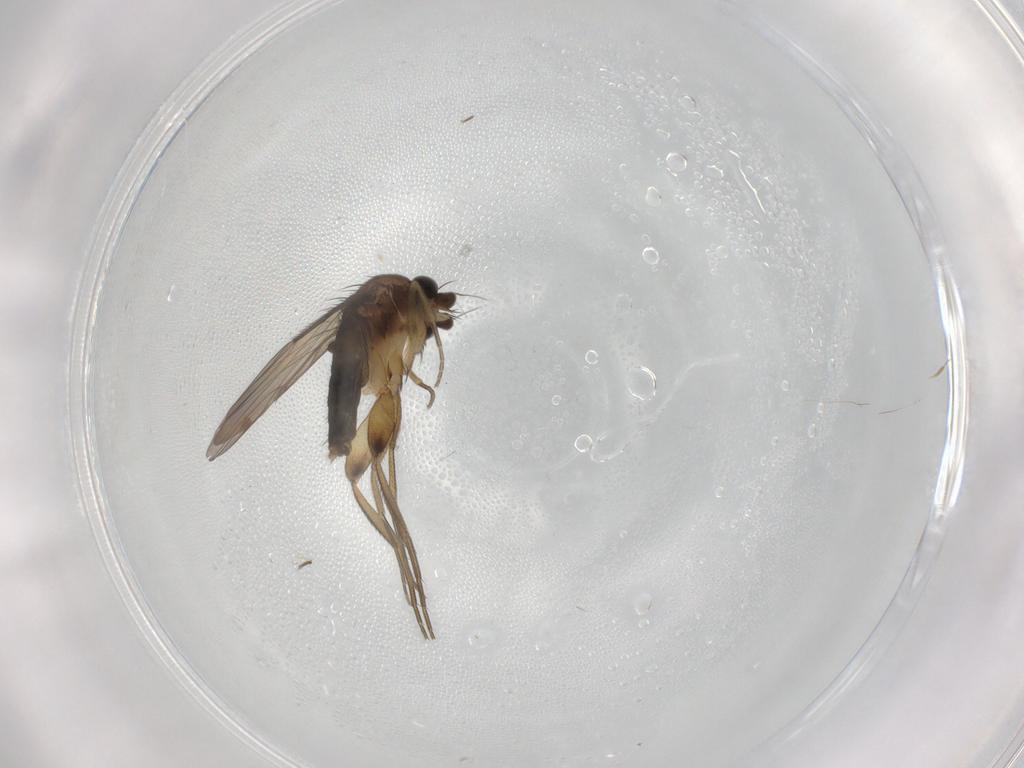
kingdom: Animalia
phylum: Arthropoda
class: Insecta
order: Diptera
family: Phoridae
